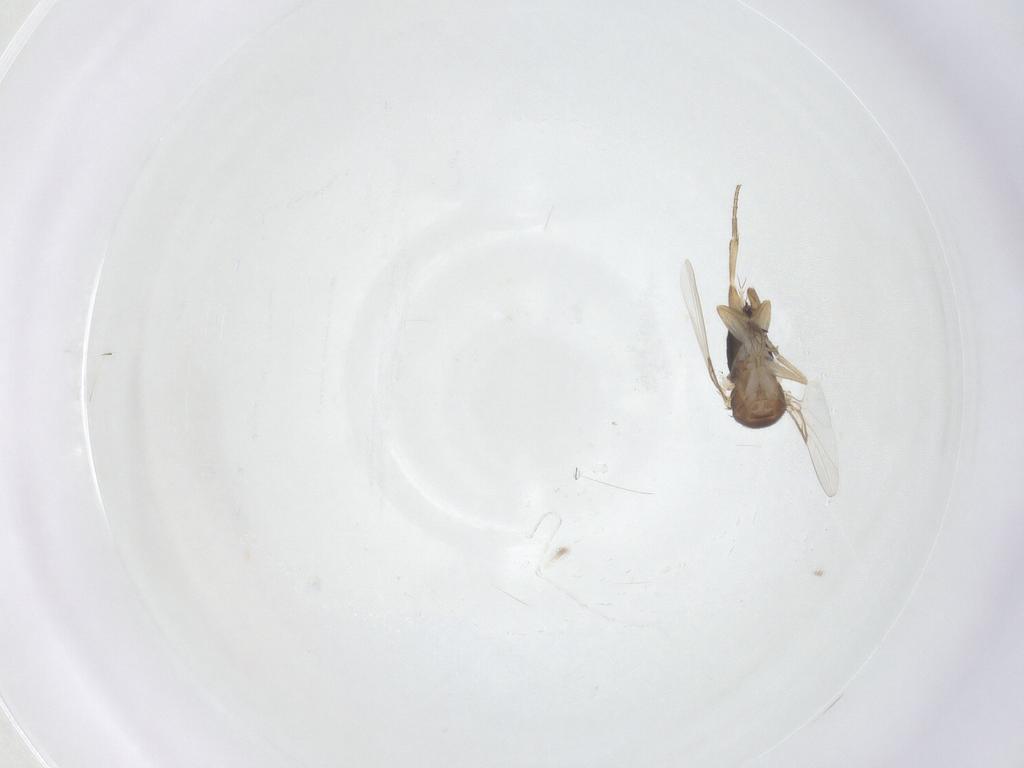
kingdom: Animalia
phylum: Arthropoda
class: Insecta
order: Diptera
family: Phoridae
